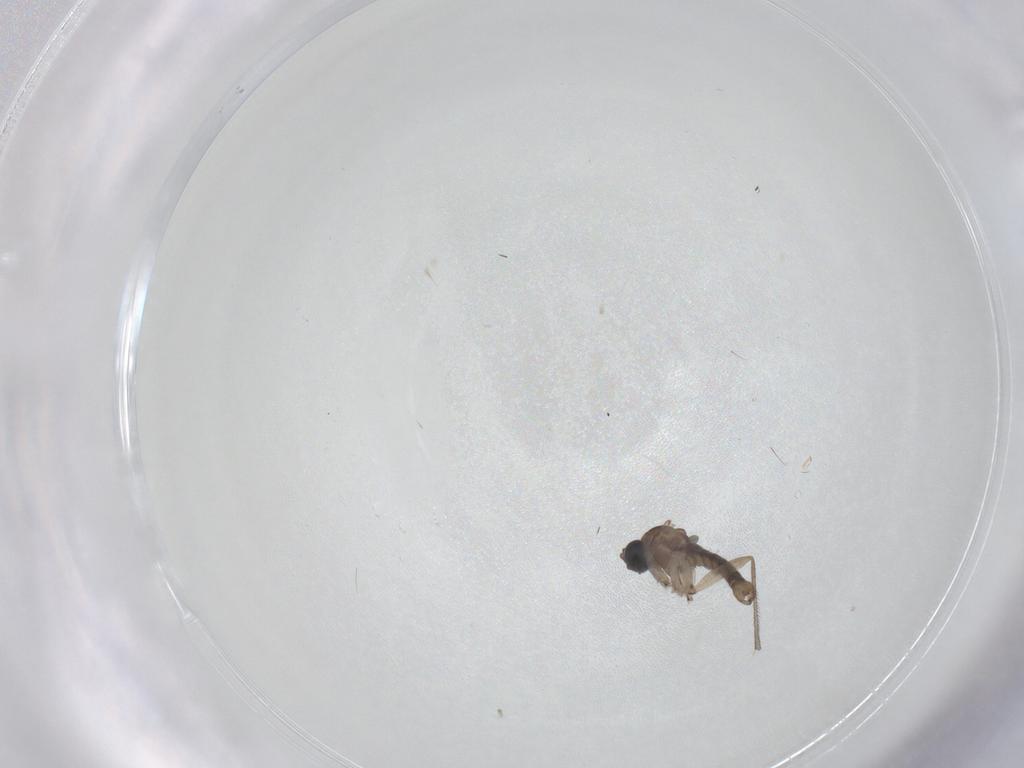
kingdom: Animalia
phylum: Arthropoda
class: Insecta
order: Diptera
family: Sciaridae
